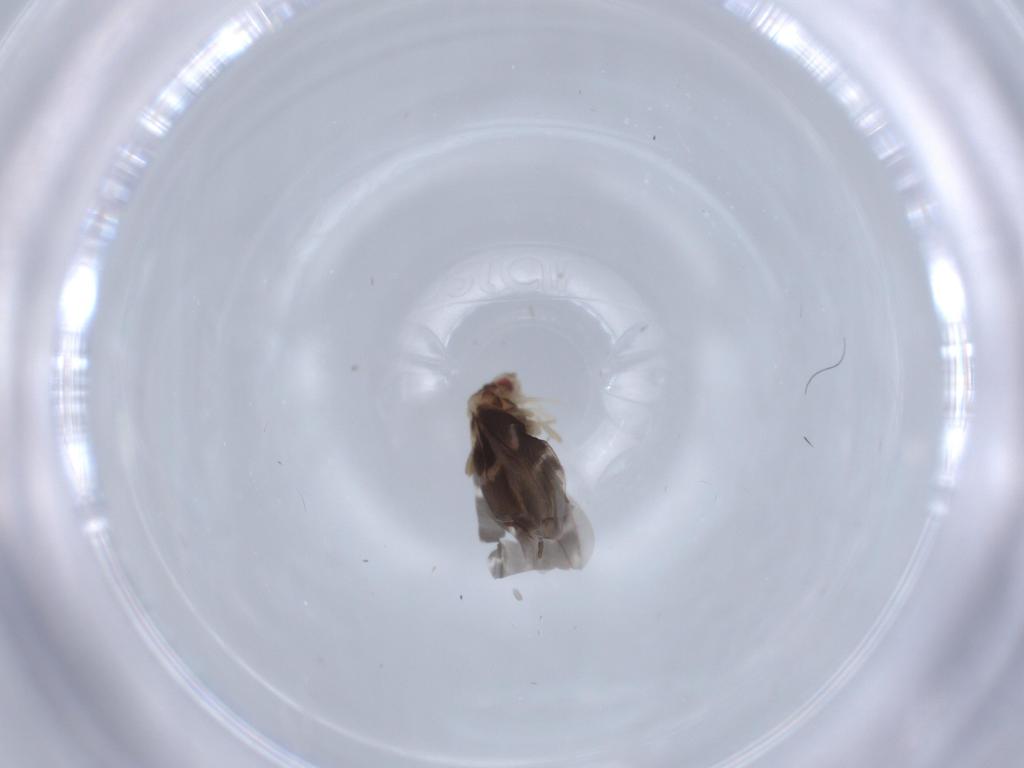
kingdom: Animalia
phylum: Arthropoda
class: Insecta
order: Hemiptera
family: Aleyrodidae
